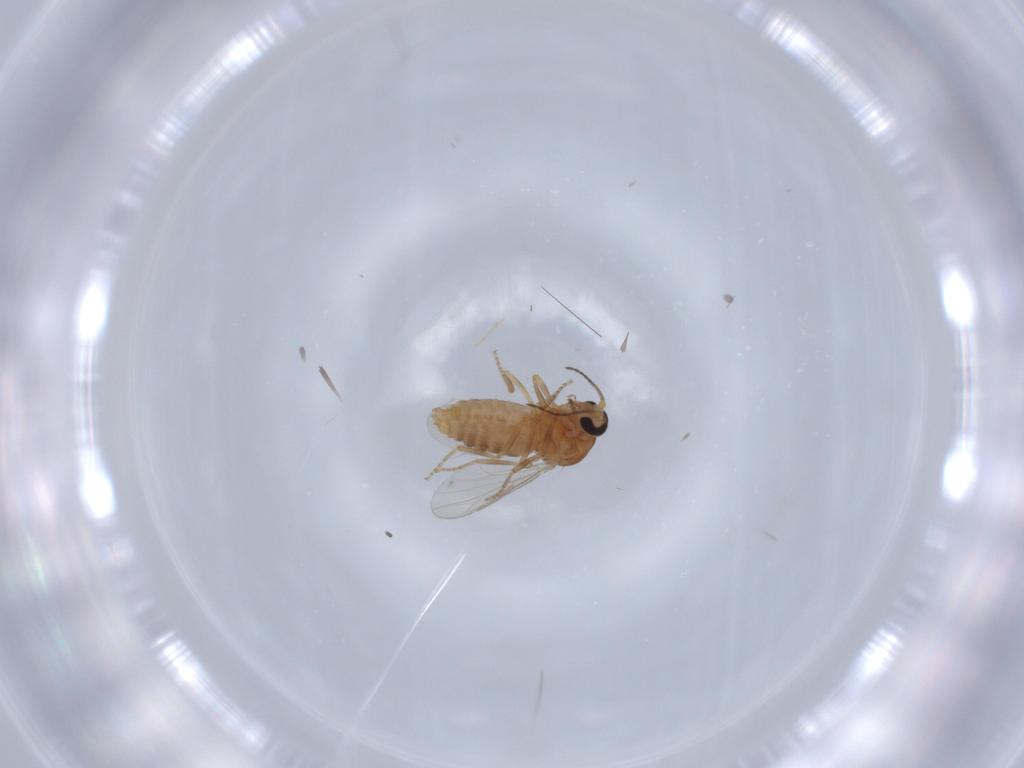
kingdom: Animalia
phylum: Arthropoda
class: Insecta
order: Diptera
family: Ceratopogonidae
